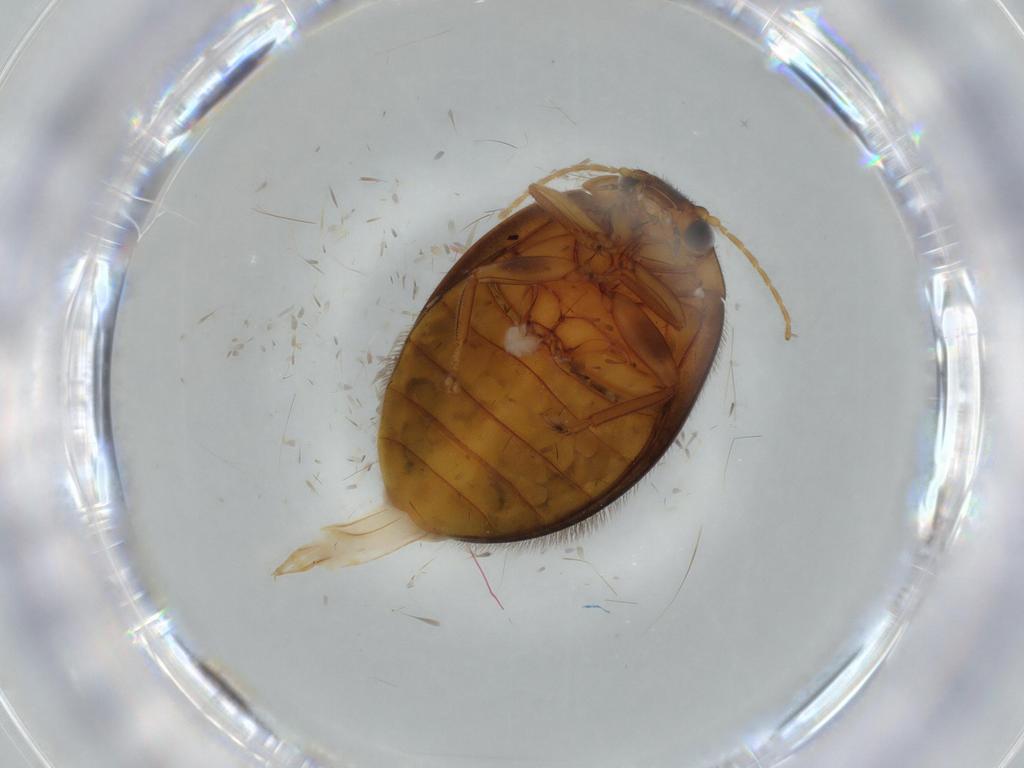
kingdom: Animalia
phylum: Arthropoda
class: Insecta
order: Coleoptera
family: Scirtidae
